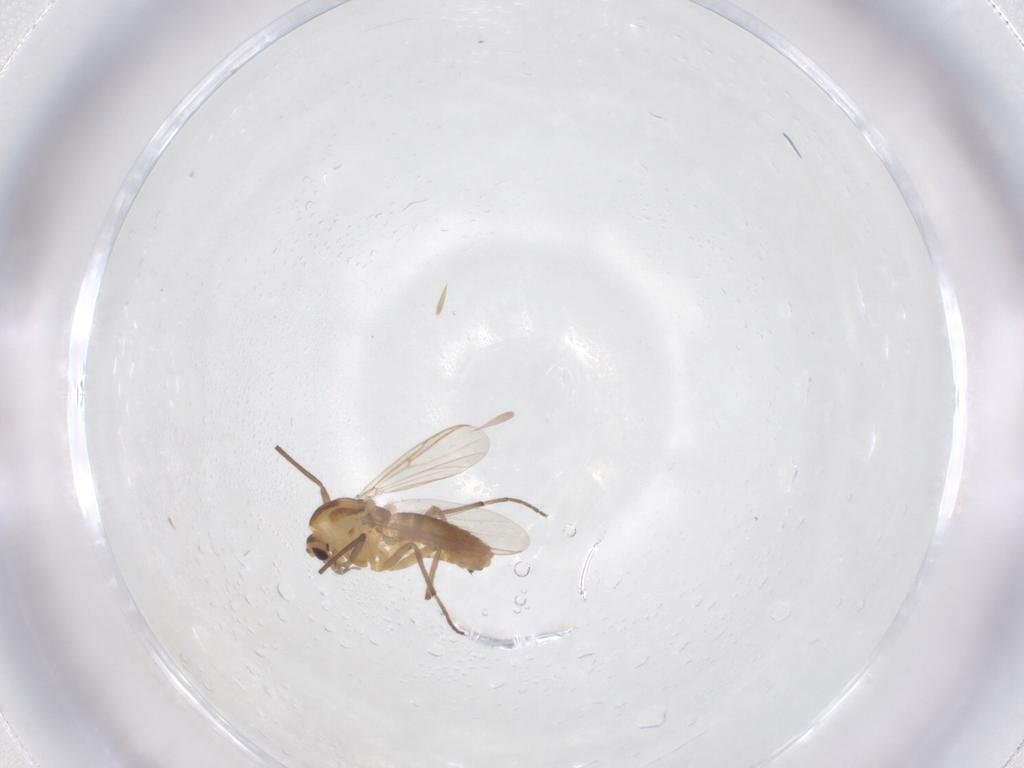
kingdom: Animalia
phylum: Arthropoda
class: Insecta
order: Diptera
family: Chironomidae
